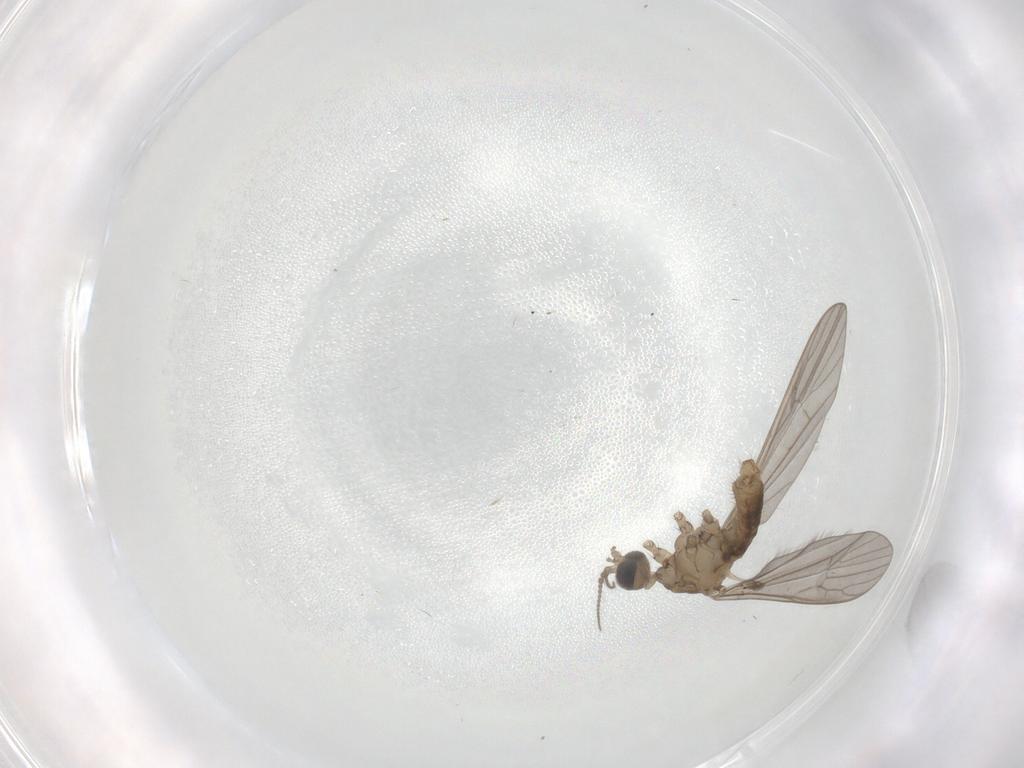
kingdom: Animalia
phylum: Arthropoda
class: Insecta
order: Diptera
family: Limoniidae
